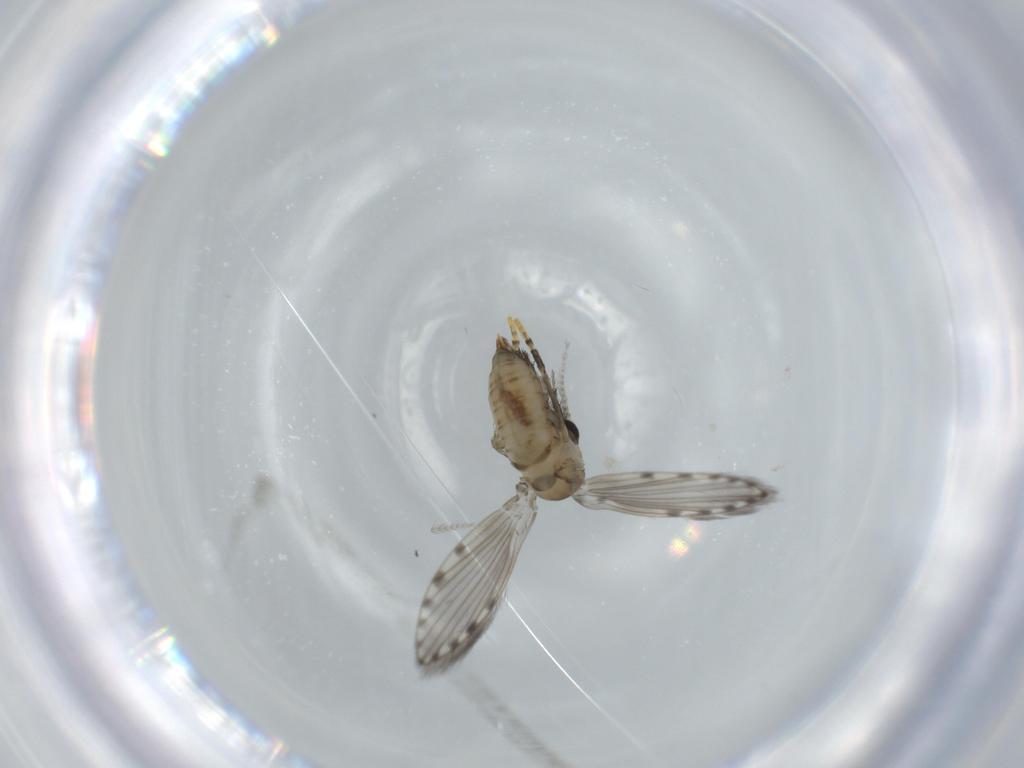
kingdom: Animalia
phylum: Arthropoda
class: Insecta
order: Diptera
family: Psychodidae
